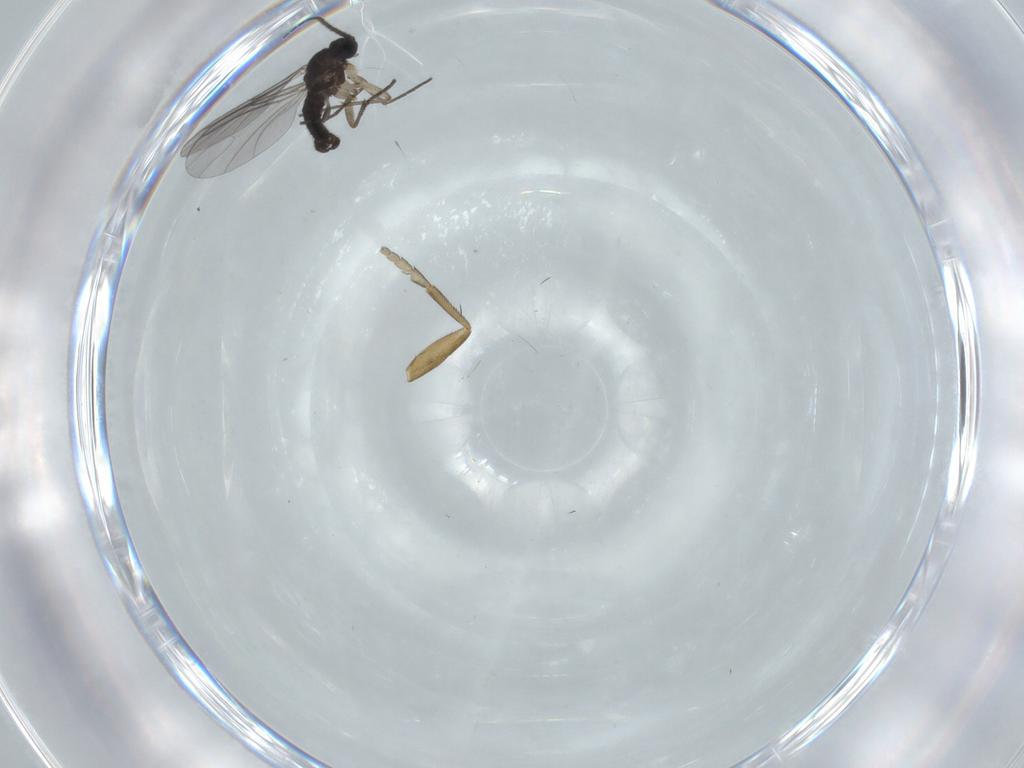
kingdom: Animalia
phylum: Arthropoda
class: Insecta
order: Diptera
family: Sciaridae
